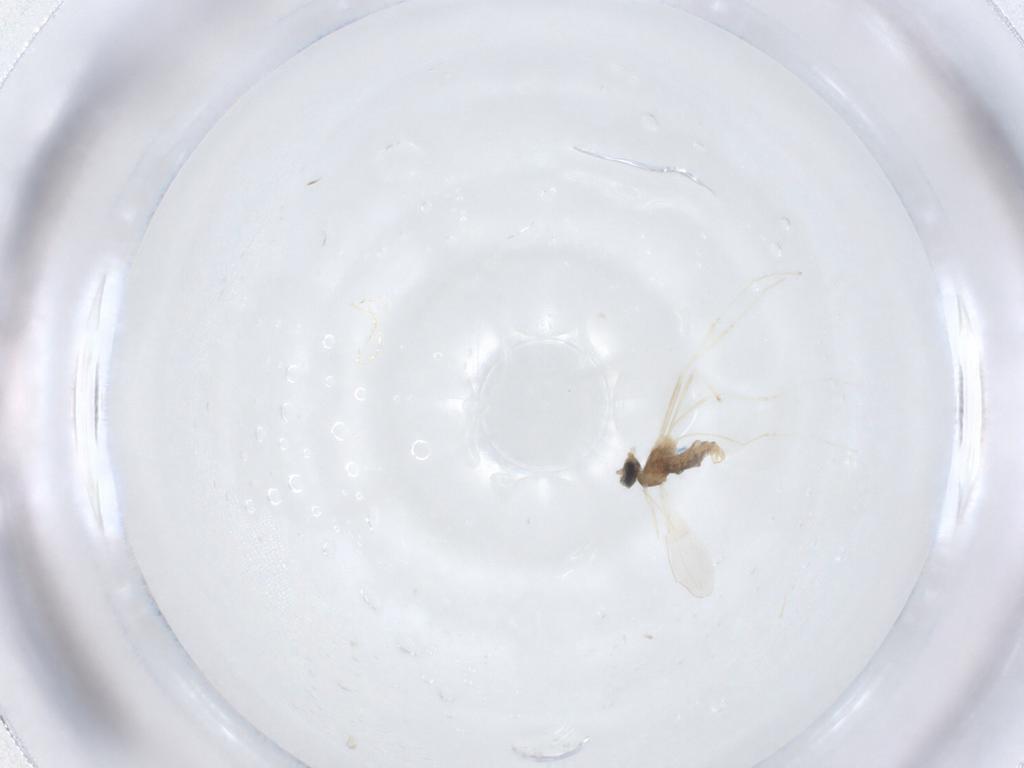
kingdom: Animalia
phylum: Arthropoda
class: Insecta
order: Diptera
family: Cecidomyiidae
